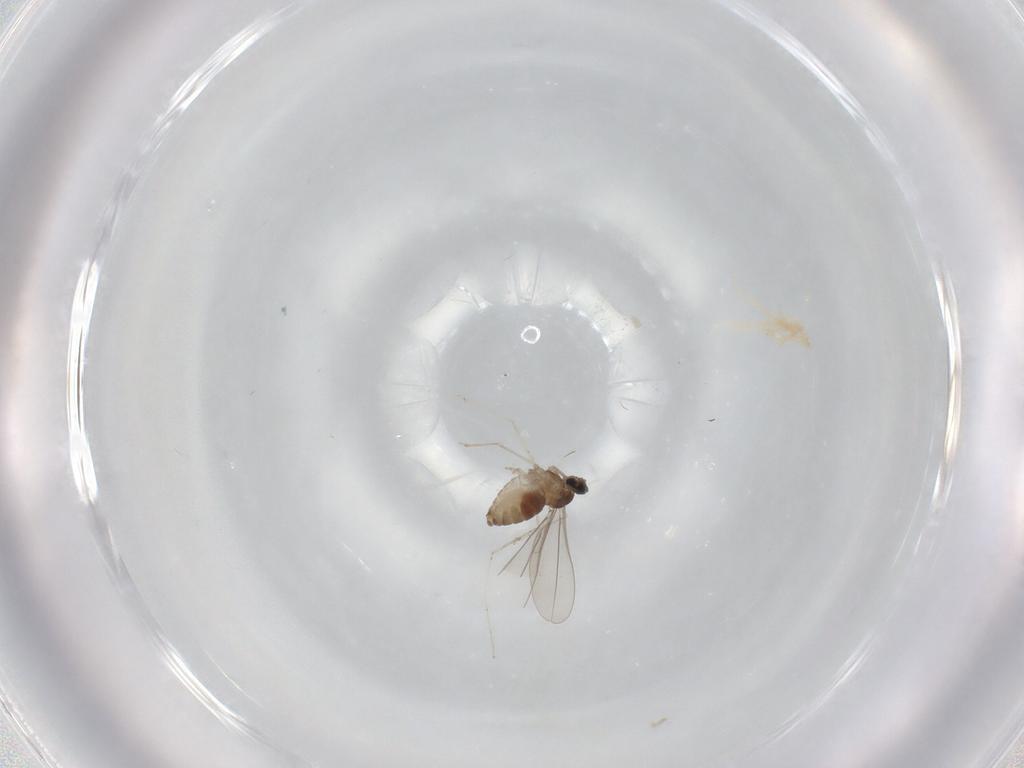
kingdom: Animalia
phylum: Arthropoda
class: Insecta
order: Diptera
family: Cecidomyiidae
